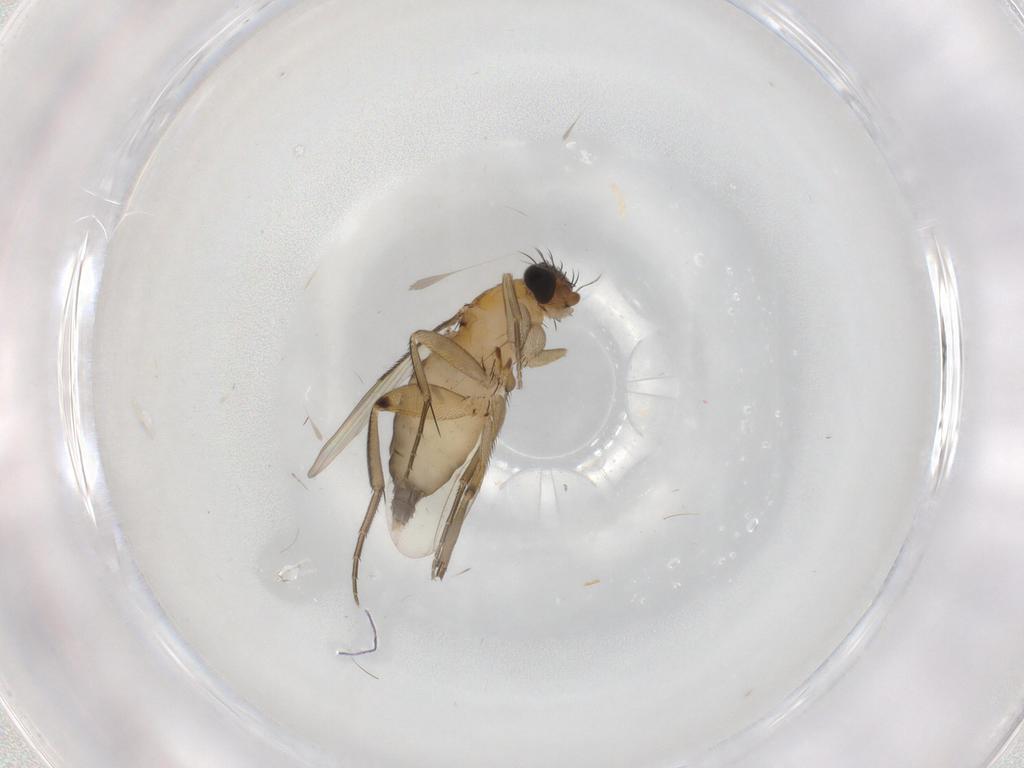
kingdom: Animalia
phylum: Arthropoda
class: Insecta
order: Diptera
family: Phoridae
